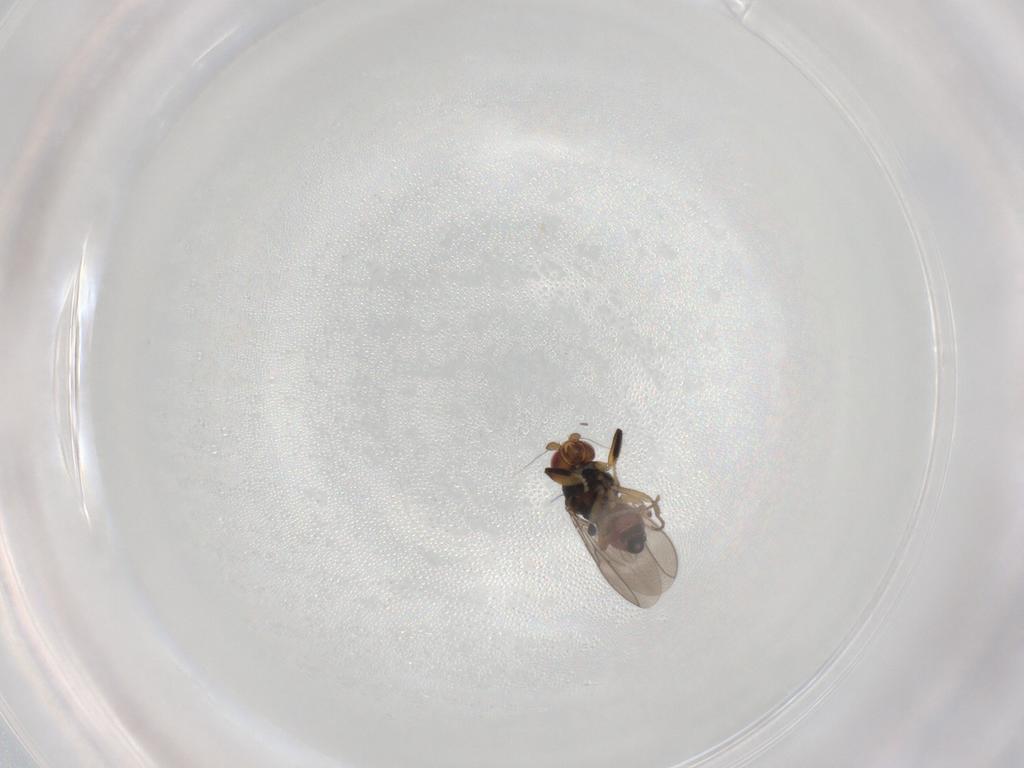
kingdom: Animalia
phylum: Arthropoda
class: Insecta
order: Diptera
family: Sphaeroceridae
